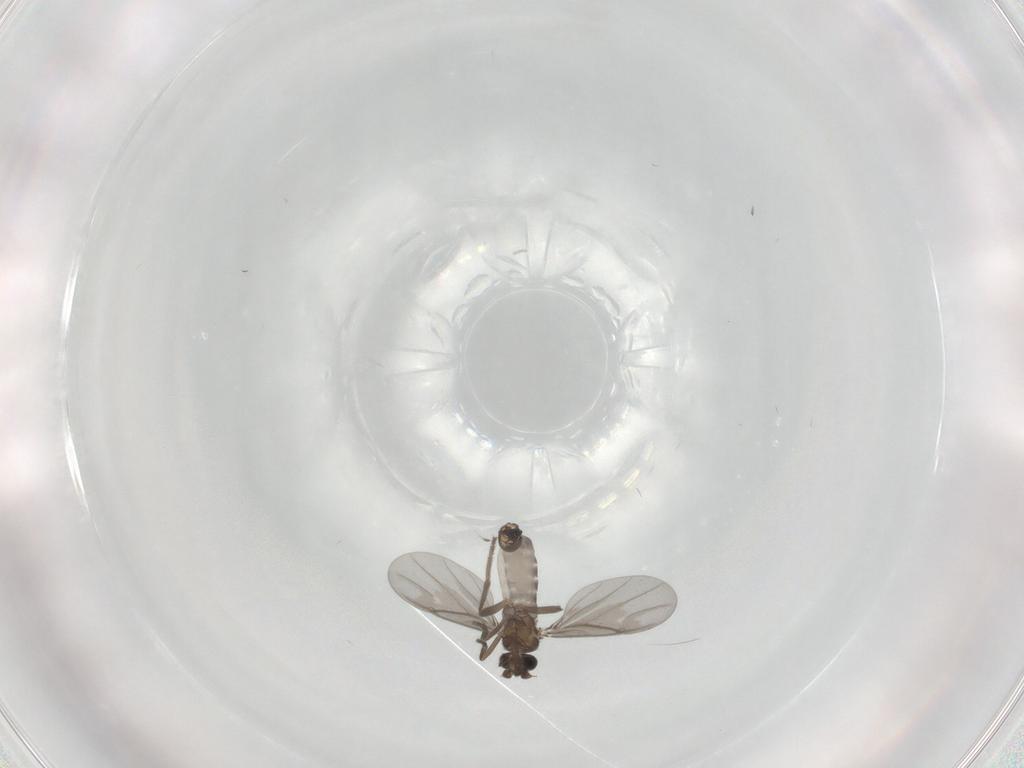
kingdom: Animalia
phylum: Arthropoda
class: Insecta
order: Diptera
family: Phoridae
